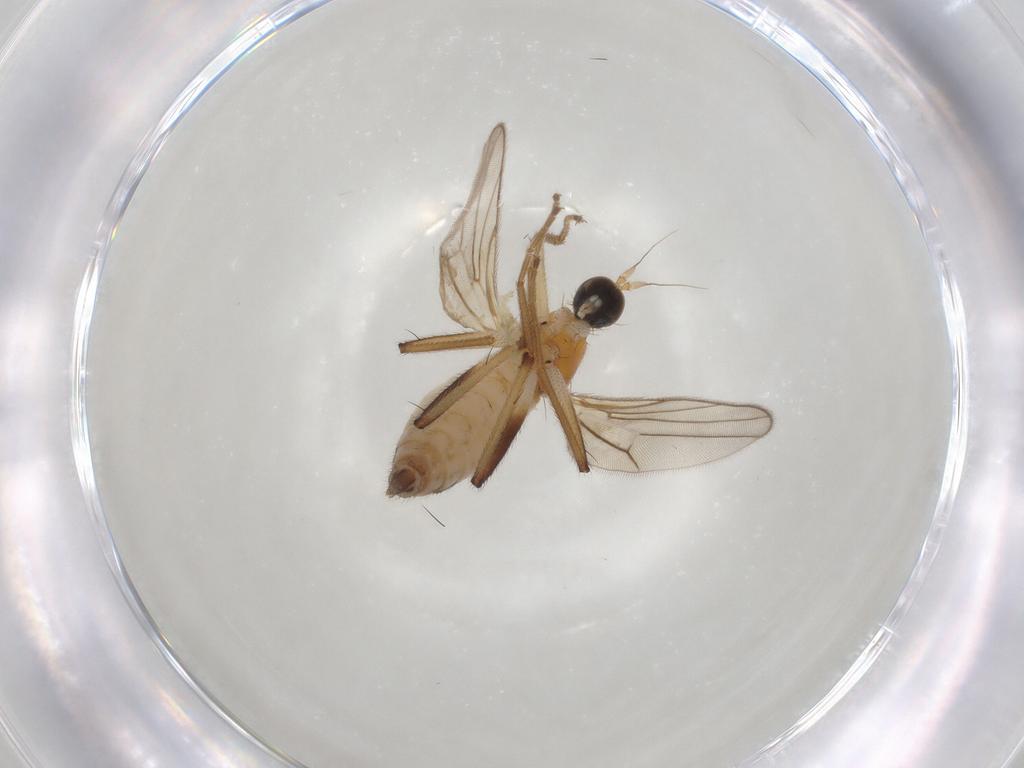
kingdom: Animalia
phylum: Arthropoda
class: Insecta
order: Diptera
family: Hybotidae
